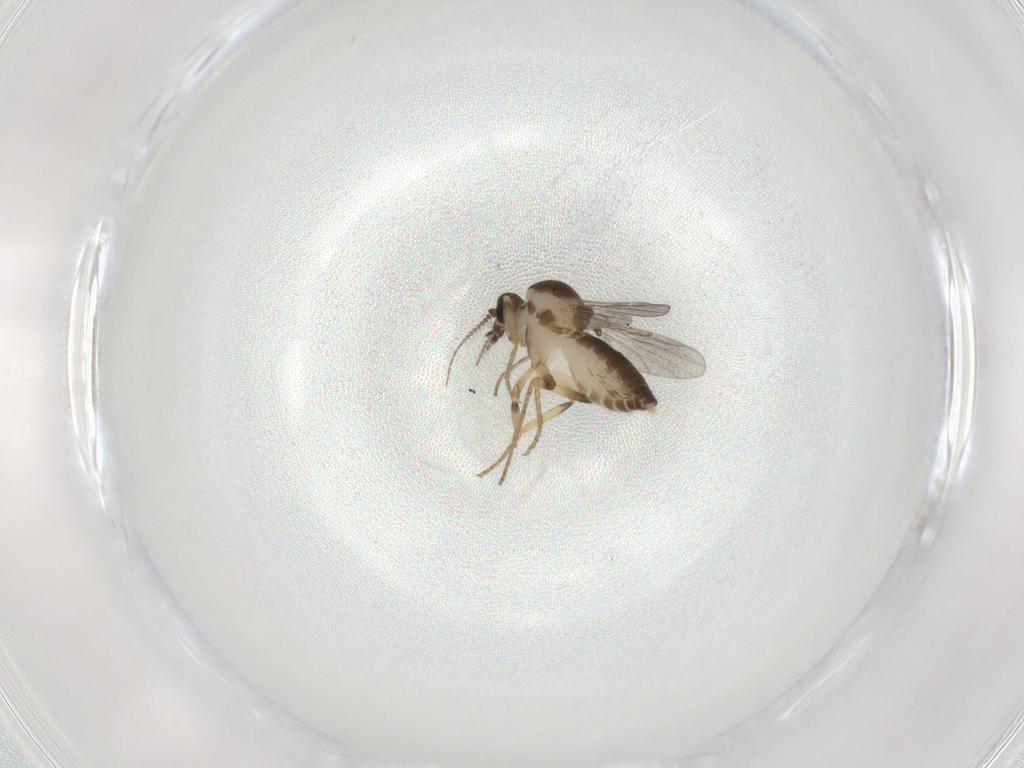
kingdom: Animalia
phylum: Arthropoda
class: Insecta
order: Diptera
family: Ceratopogonidae
